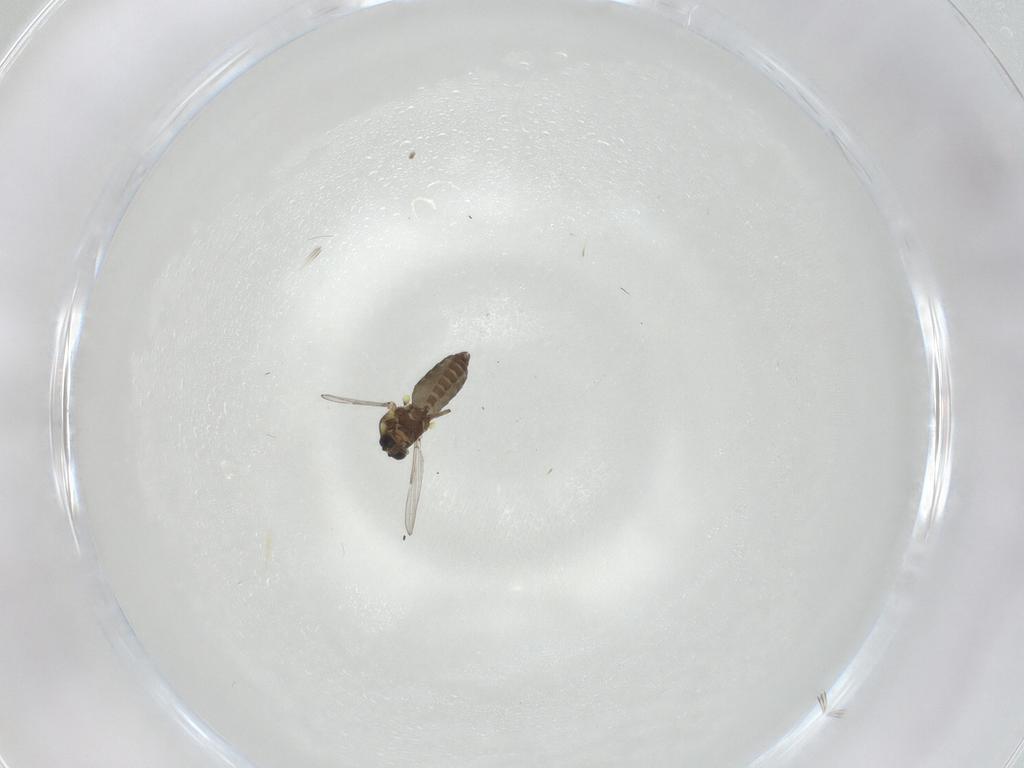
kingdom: Animalia
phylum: Arthropoda
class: Insecta
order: Diptera
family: Ceratopogonidae
